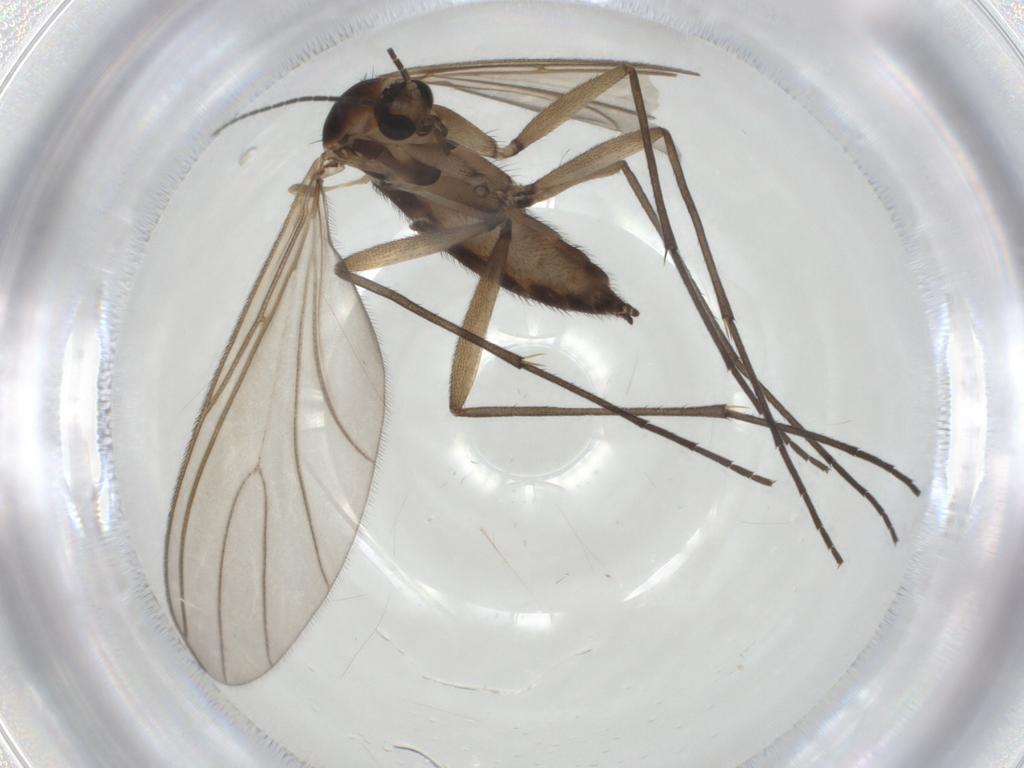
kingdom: Animalia
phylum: Arthropoda
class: Insecta
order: Diptera
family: Sciaridae
